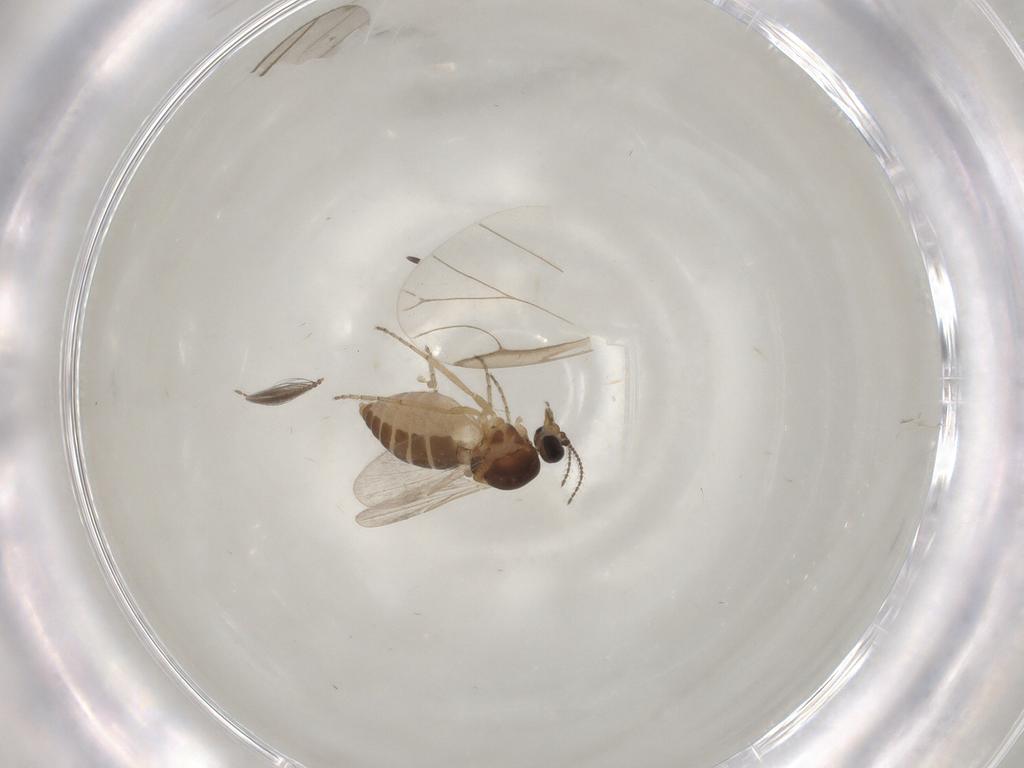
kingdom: Animalia
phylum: Arthropoda
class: Insecta
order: Diptera
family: Ceratopogonidae
